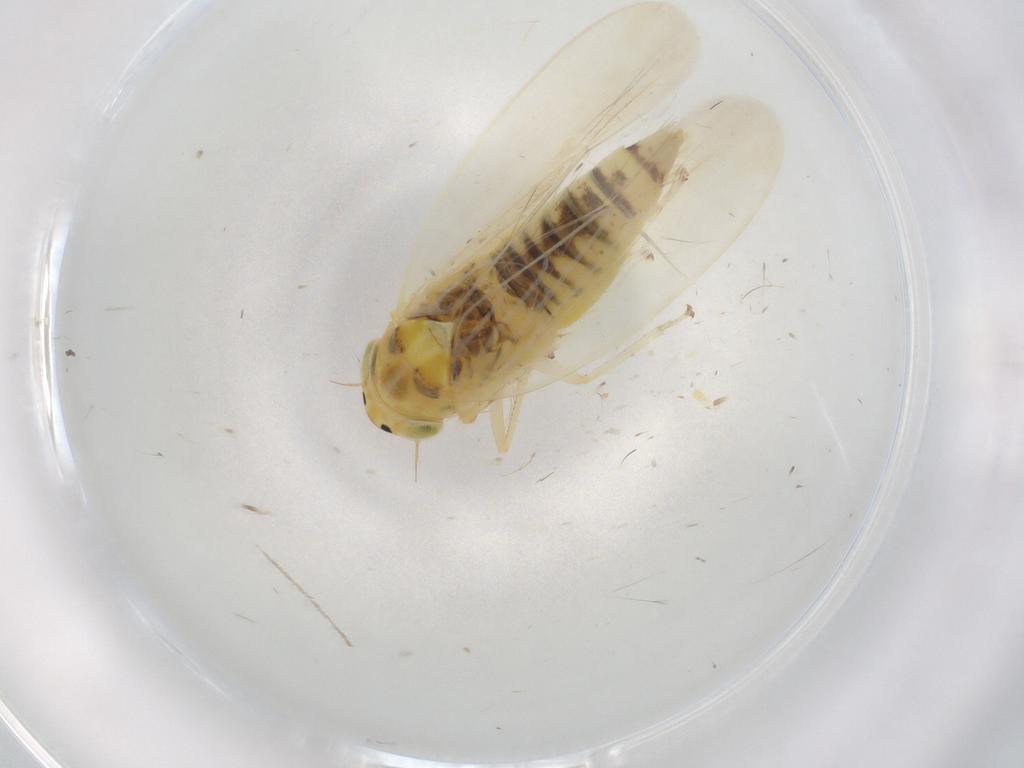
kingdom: Animalia
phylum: Arthropoda
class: Insecta
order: Hemiptera
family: Cicadellidae
